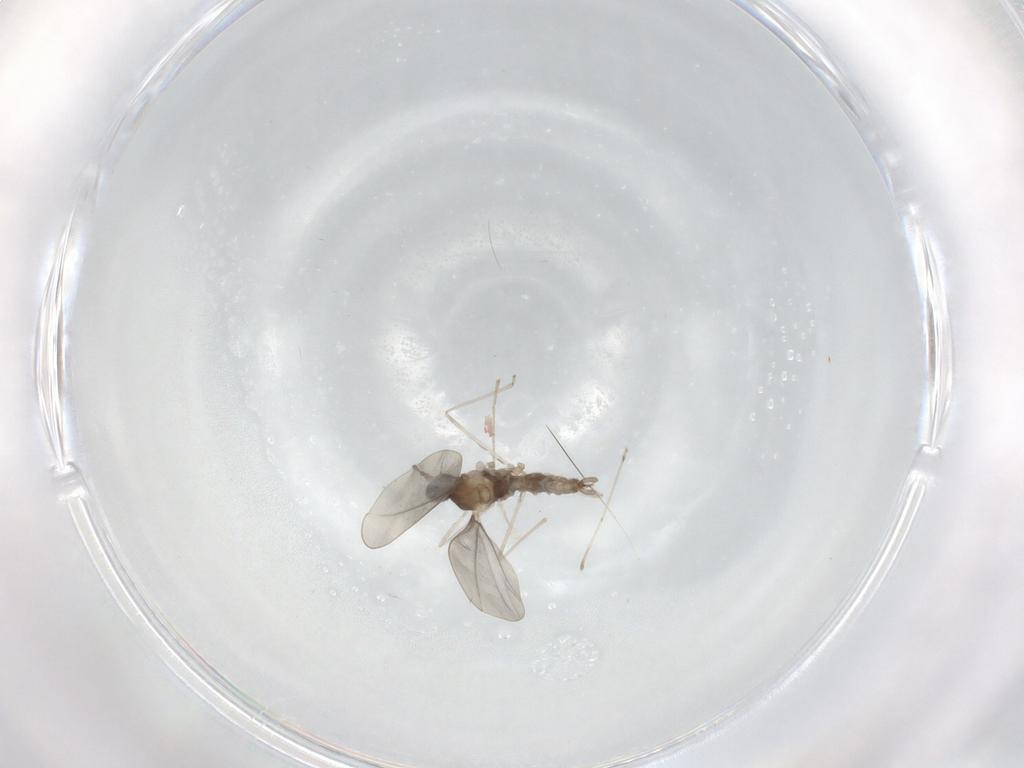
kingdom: Animalia
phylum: Arthropoda
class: Insecta
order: Diptera
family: Cecidomyiidae
